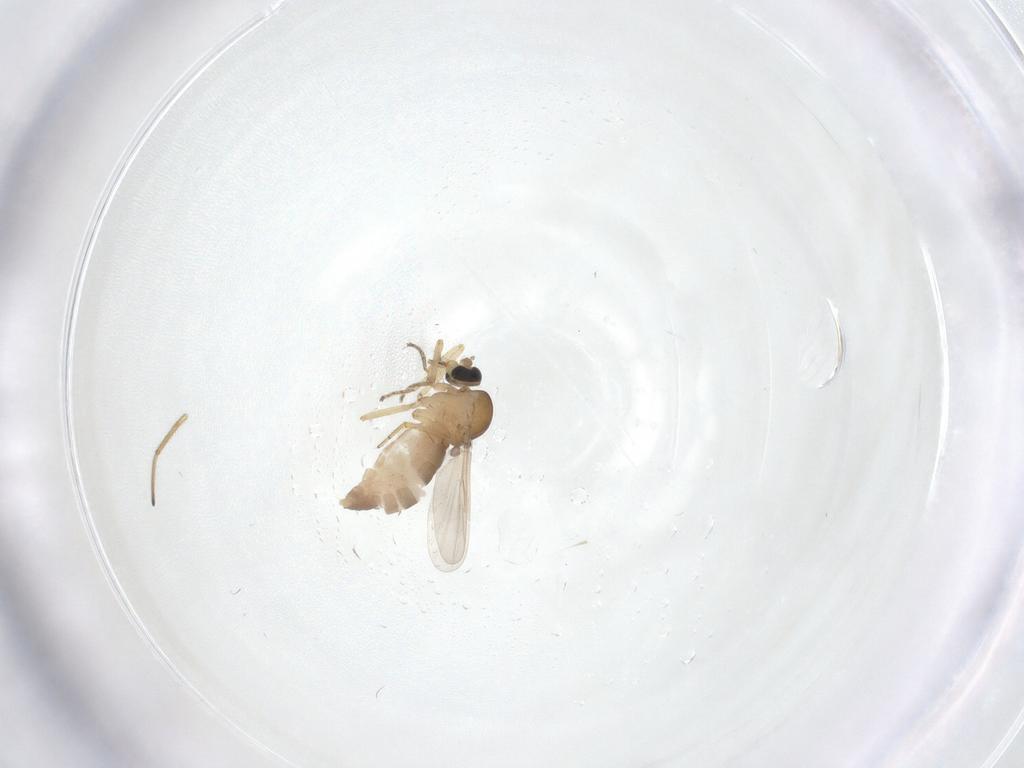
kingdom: Animalia
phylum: Arthropoda
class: Insecta
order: Diptera
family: Ceratopogonidae
